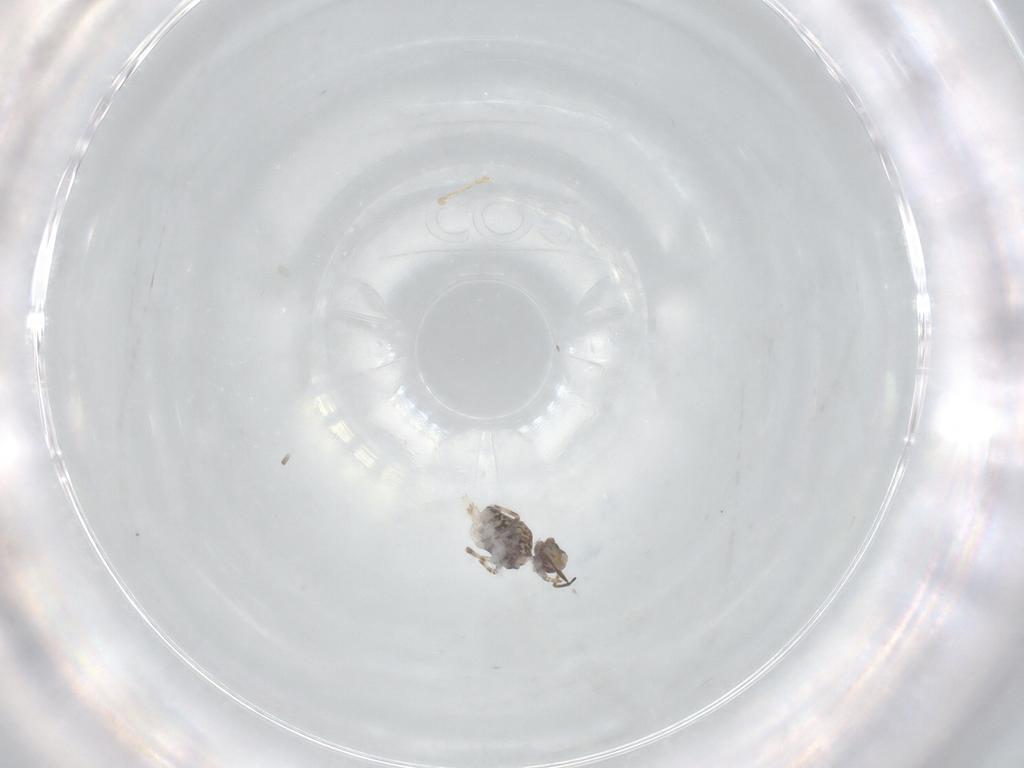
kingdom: Animalia
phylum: Arthropoda
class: Collembola
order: Symphypleona
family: Katiannidae
